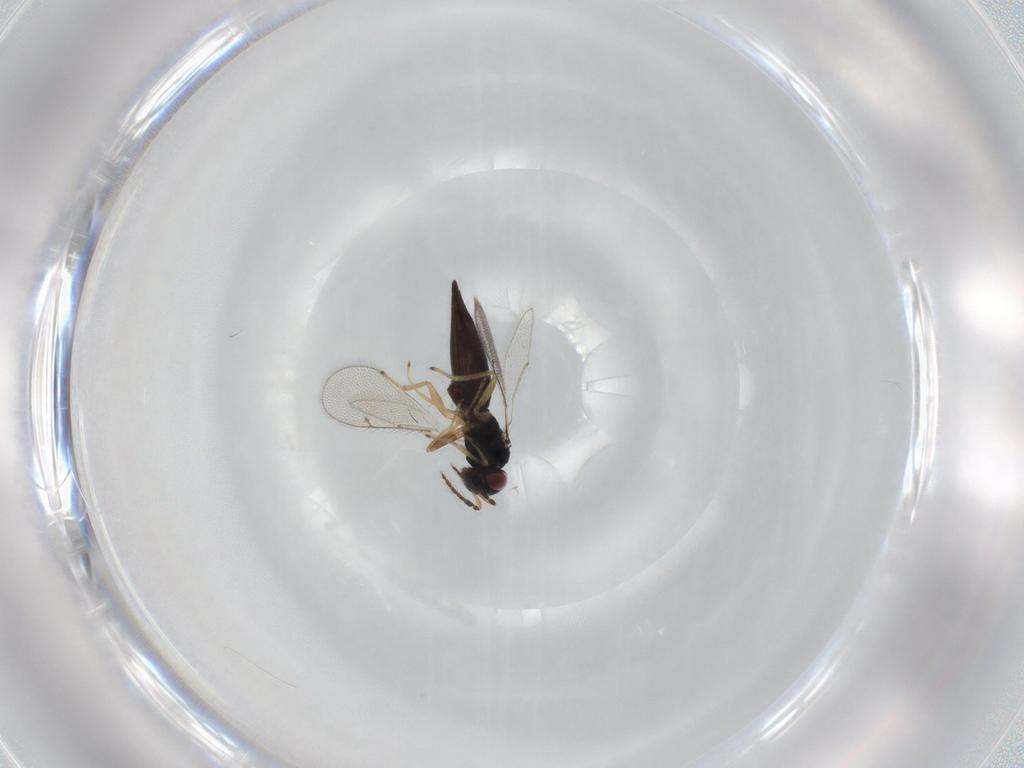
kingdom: Animalia
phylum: Arthropoda
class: Insecta
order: Hymenoptera
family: Eulophidae
